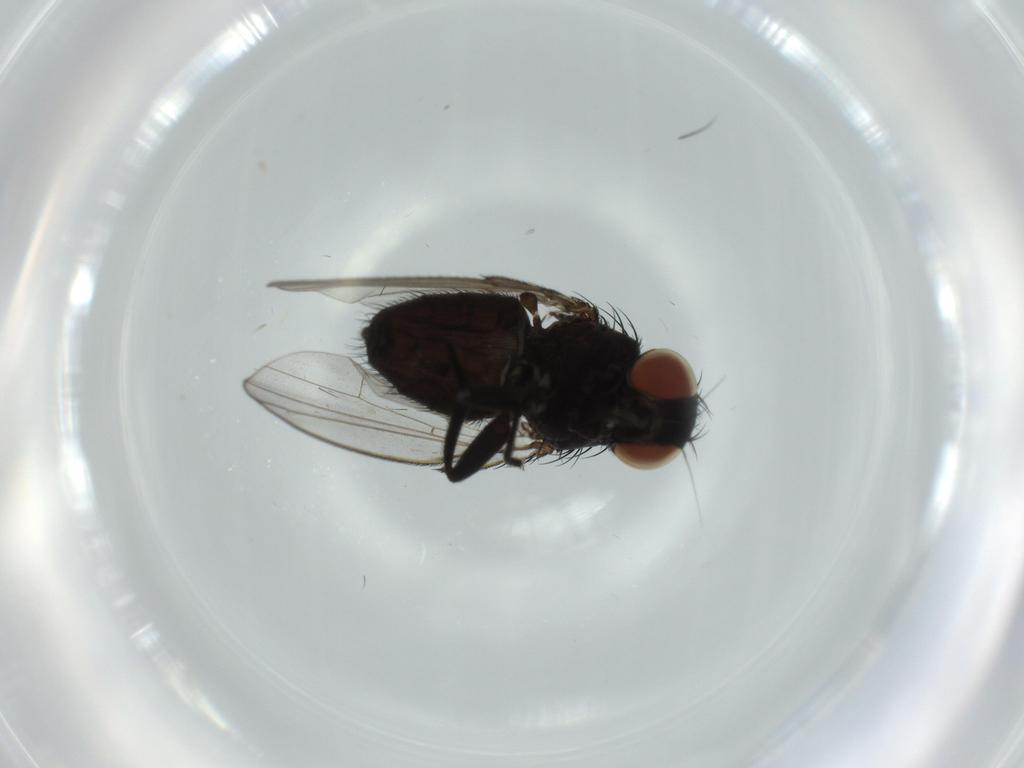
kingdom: Animalia
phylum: Arthropoda
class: Insecta
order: Diptera
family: Milichiidae
